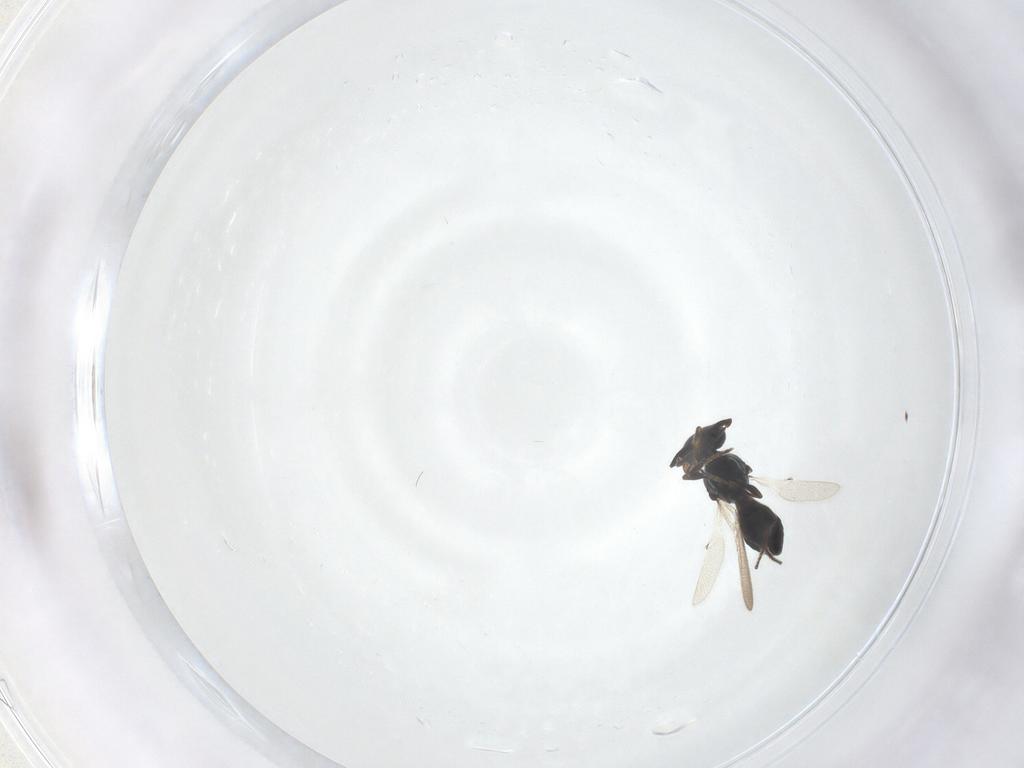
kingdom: Animalia
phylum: Arthropoda
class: Insecta
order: Hymenoptera
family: Platygastridae
